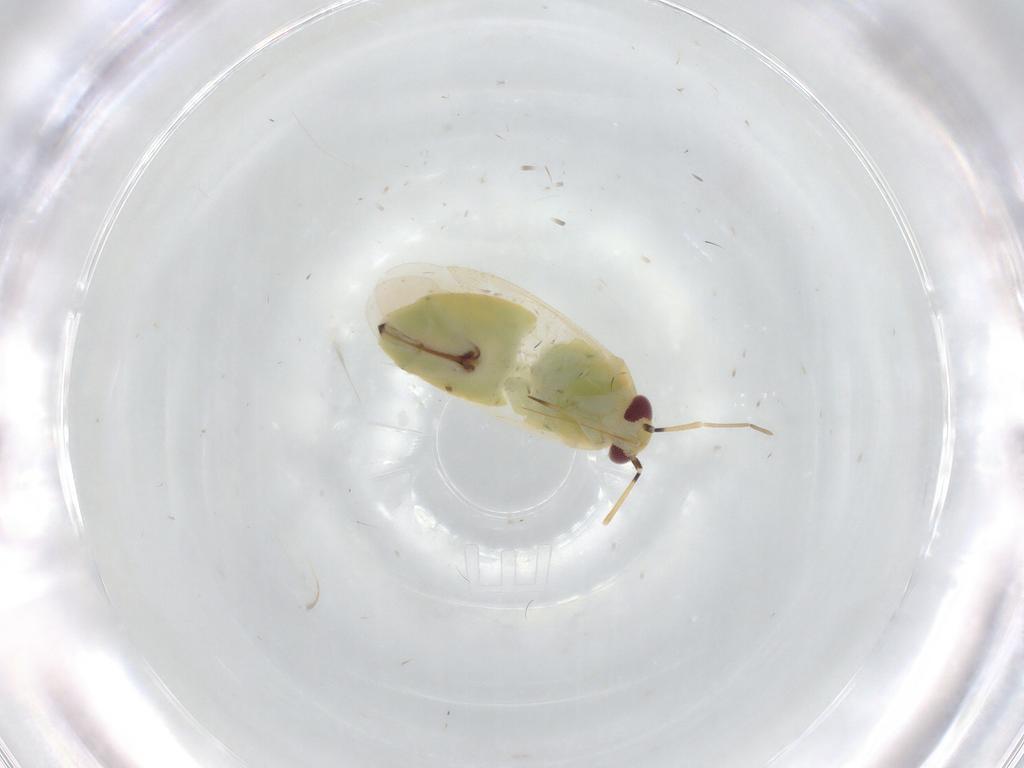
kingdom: Animalia
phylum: Arthropoda
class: Insecta
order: Hemiptera
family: Miridae
